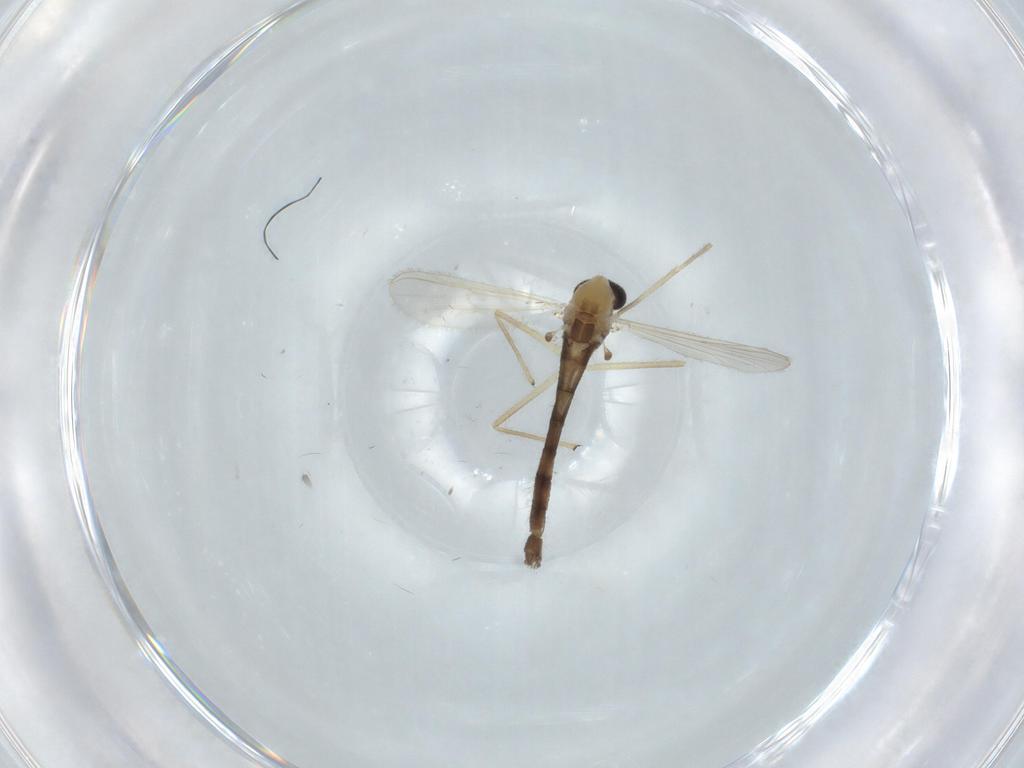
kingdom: Animalia
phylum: Arthropoda
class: Insecta
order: Diptera
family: Chironomidae
